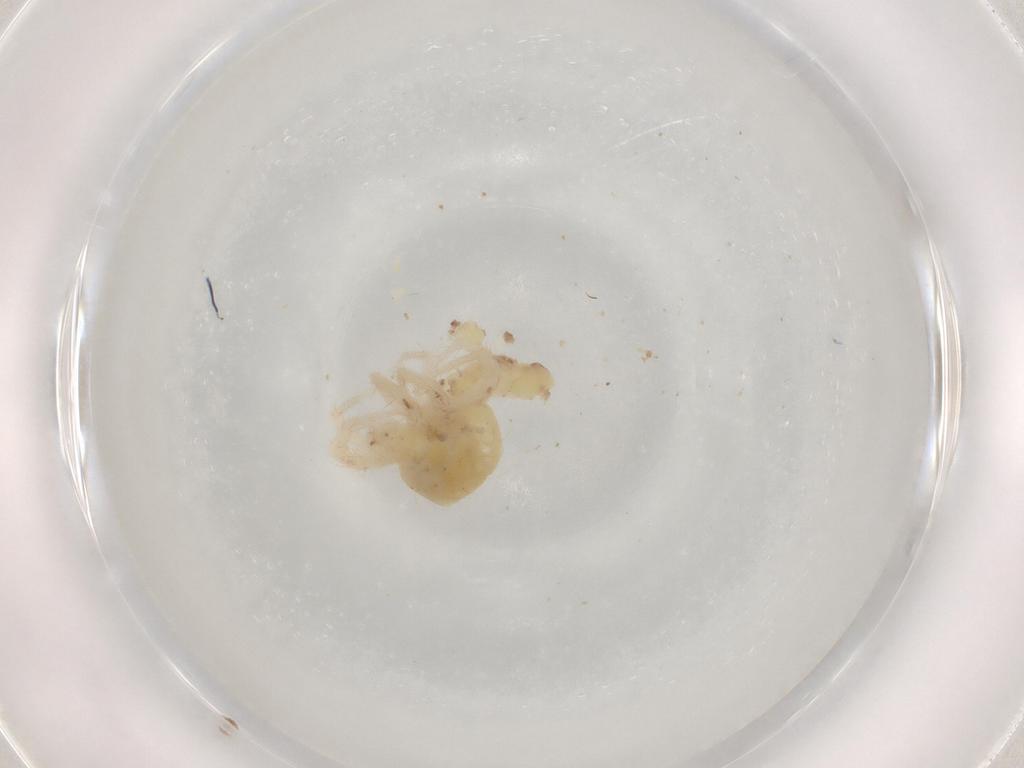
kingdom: Animalia
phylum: Arthropoda
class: Arachnida
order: Trombidiformes
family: Anystidae
